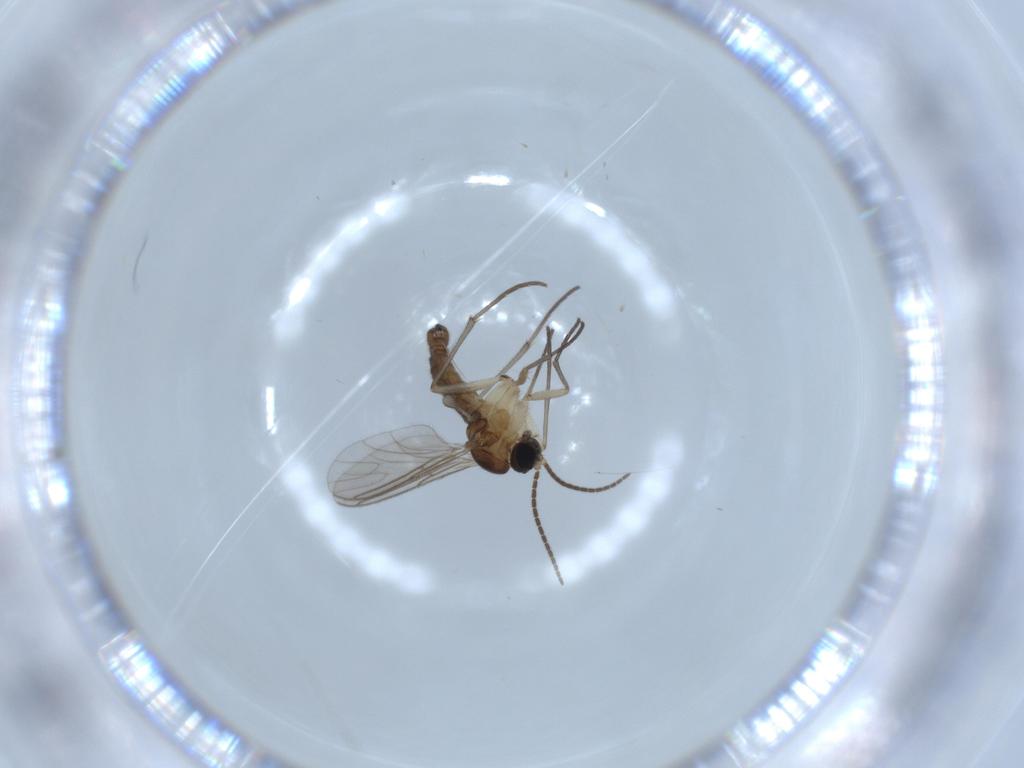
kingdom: Animalia
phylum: Arthropoda
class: Insecta
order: Diptera
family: Sciaridae
